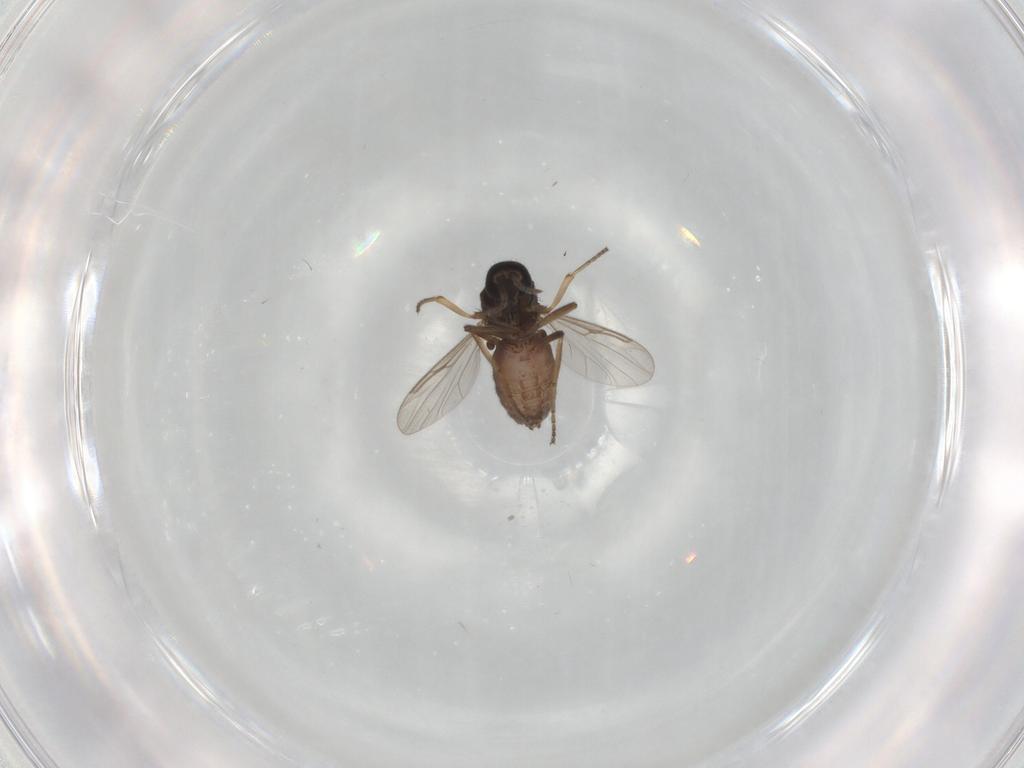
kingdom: Animalia
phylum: Arthropoda
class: Insecta
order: Diptera
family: Ceratopogonidae
